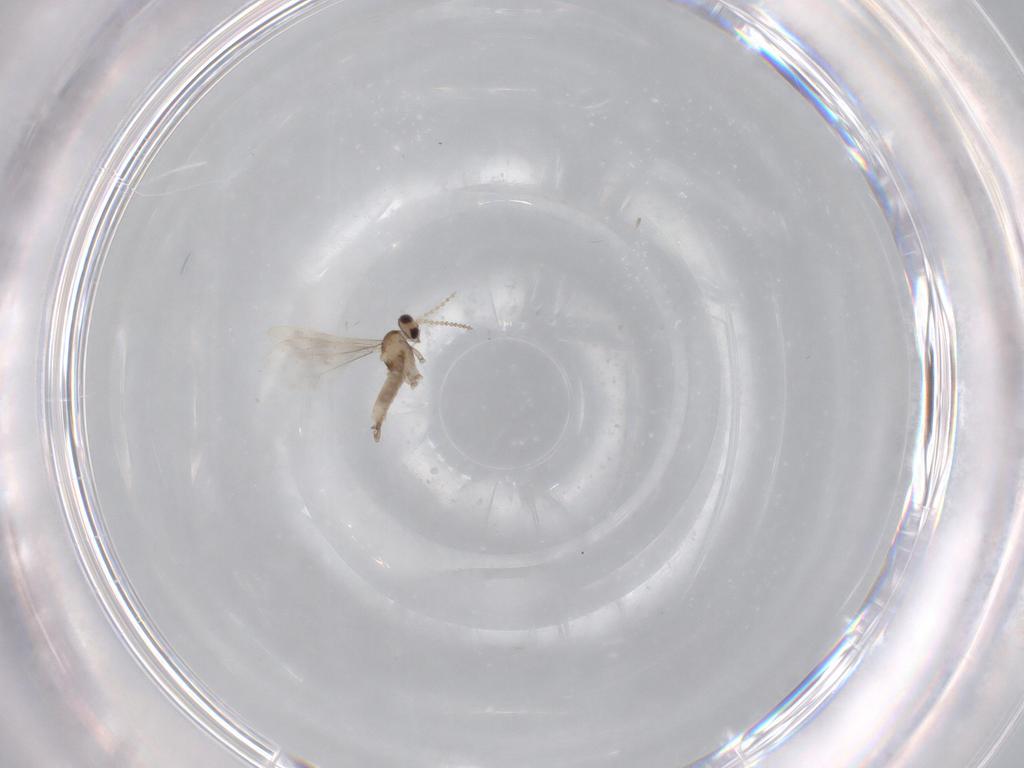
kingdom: Animalia
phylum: Arthropoda
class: Insecta
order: Diptera
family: Cecidomyiidae
